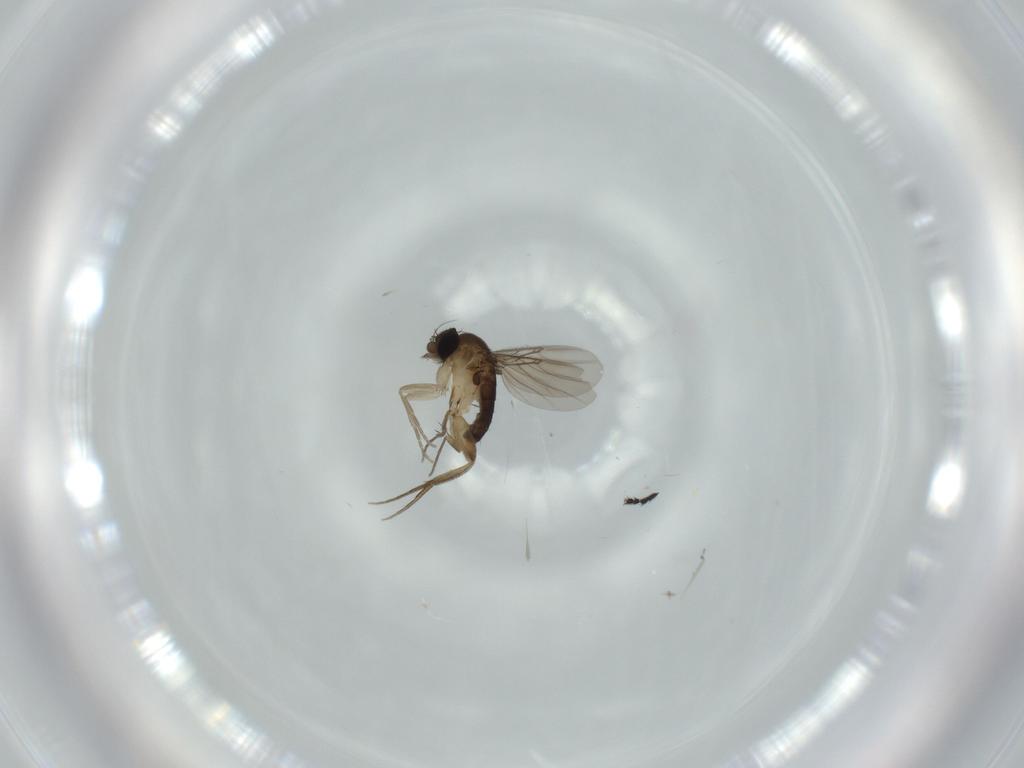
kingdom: Animalia
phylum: Arthropoda
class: Insecta
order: Diptera
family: Phoridae
